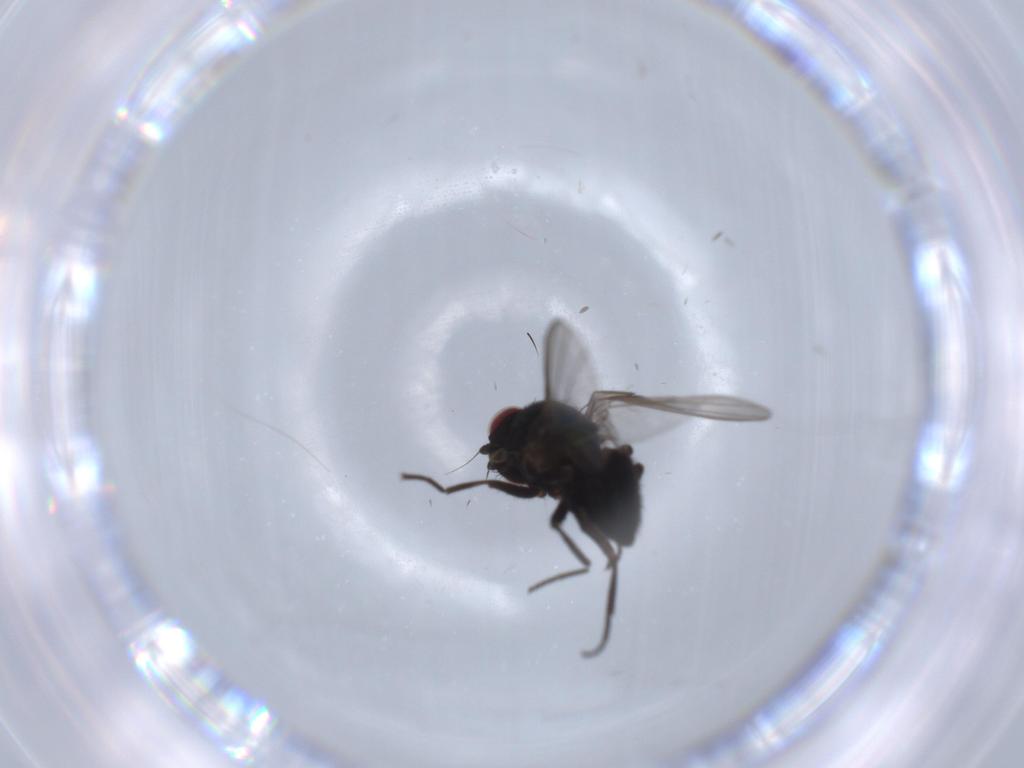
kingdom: Animalia
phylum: Arthropoda
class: Insecta
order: Diptera
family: Agromyzidae
